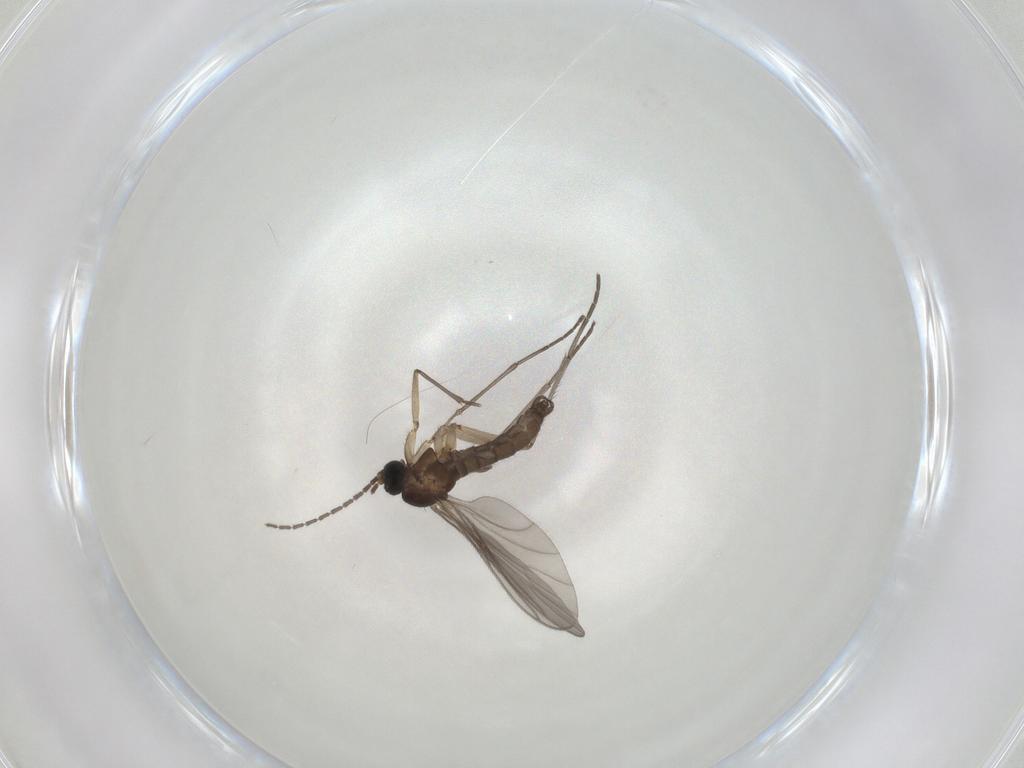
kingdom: Animalia
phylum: Arthropoda
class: Insecta
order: Diptera
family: Sciaridae
